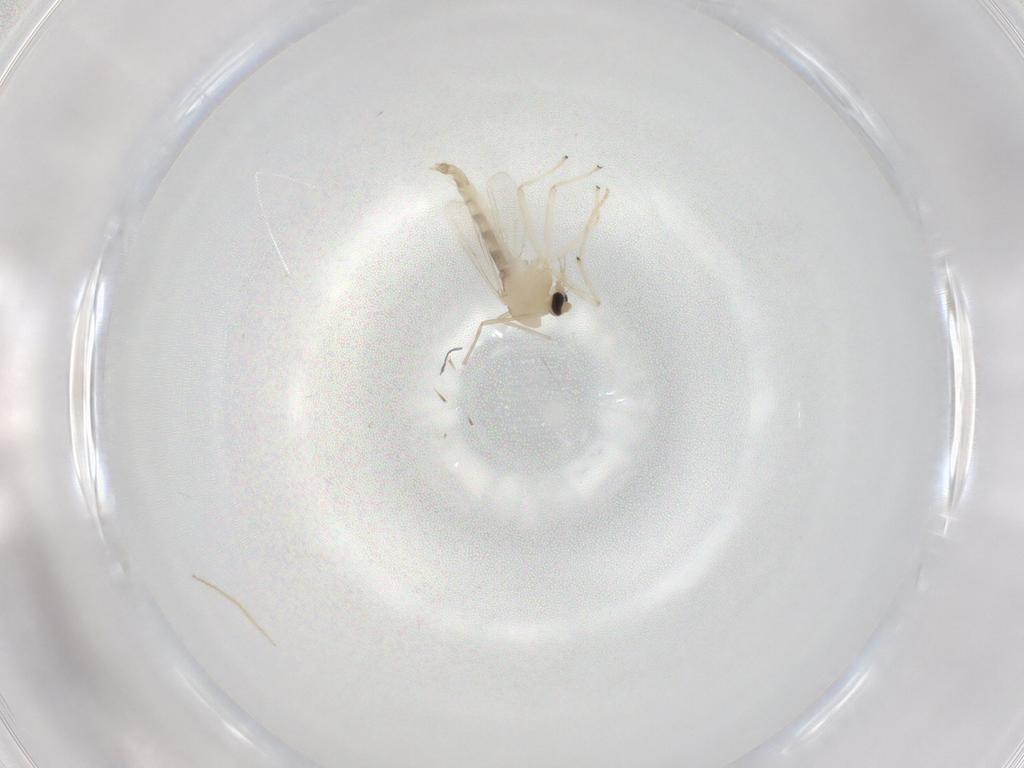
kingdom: Animalia
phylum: Arthropoda
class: Insecta
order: Diptera
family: Chironomidae
